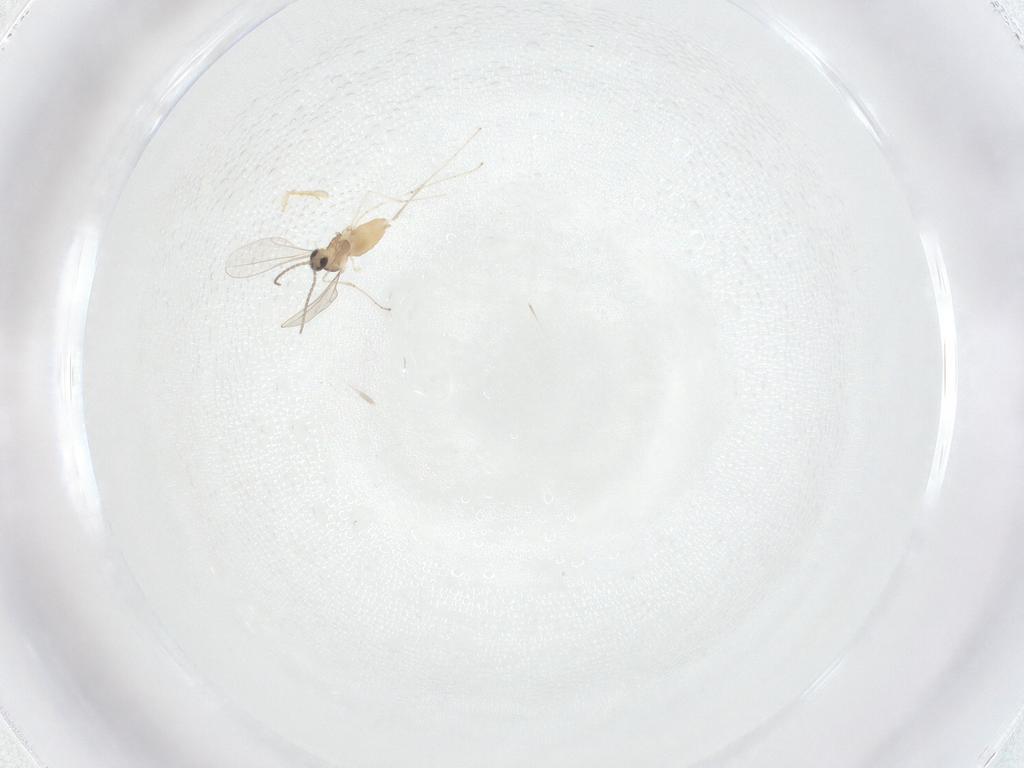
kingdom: Animalia
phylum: Arthropoda
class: Insecta
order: Diptera
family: Cecidomyiidae
